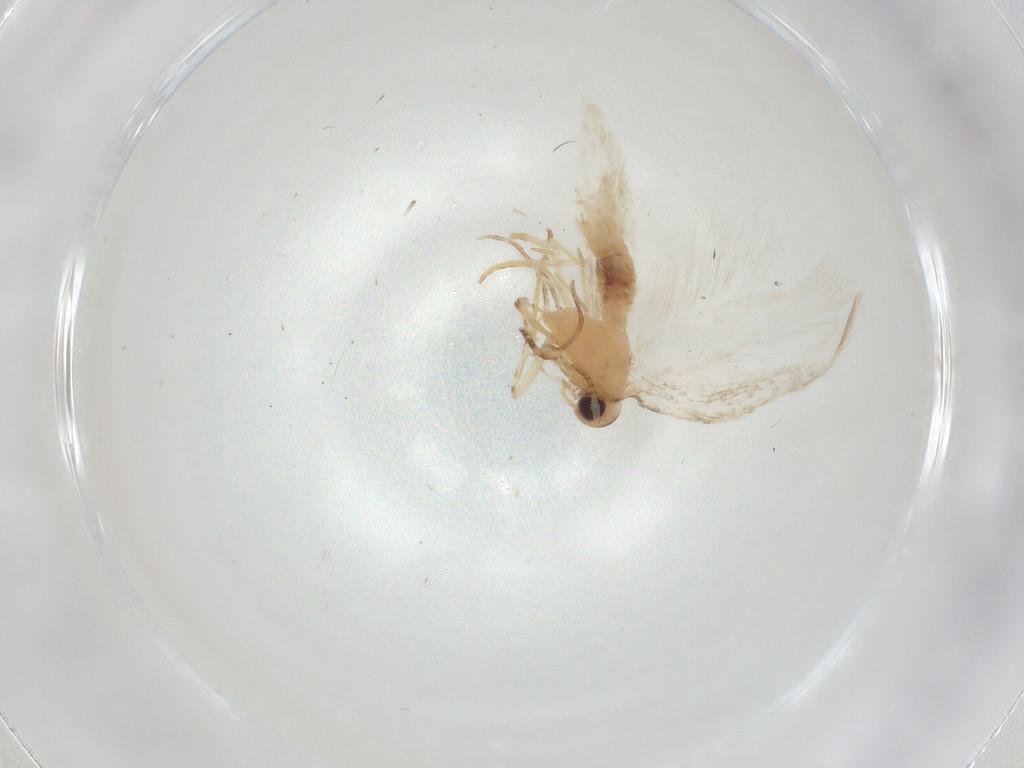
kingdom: Animalia
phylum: Arthropoda
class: Insecta
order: Lepidoptera
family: Gelechiidae
